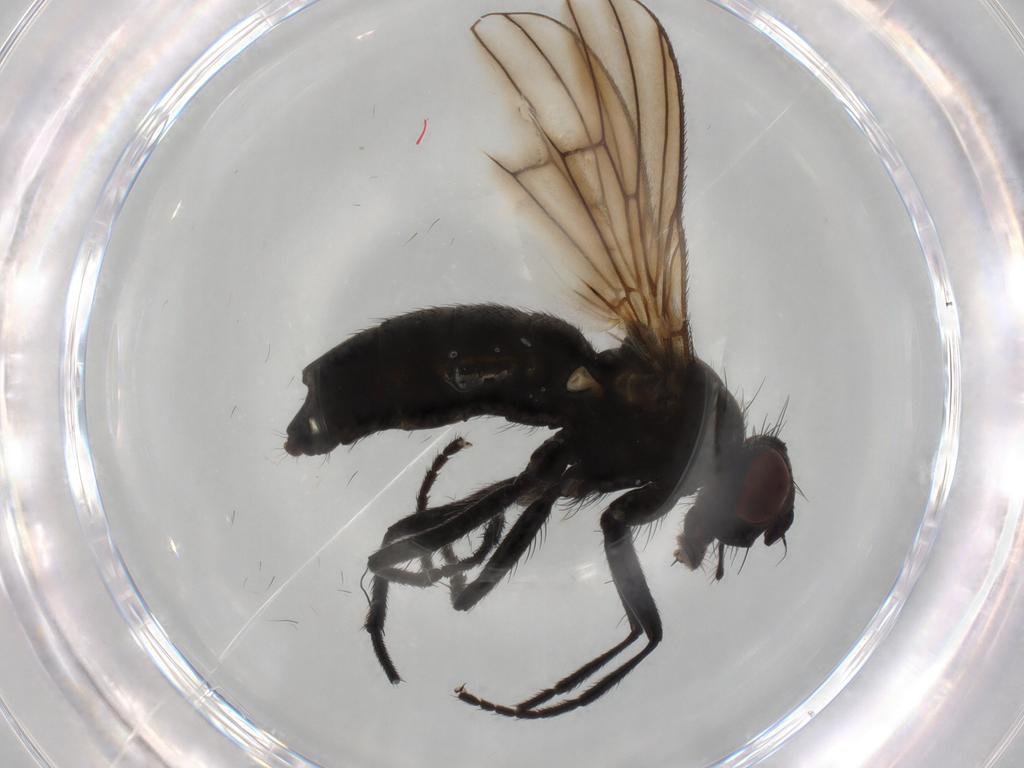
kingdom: Animalia
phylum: Arthropoda
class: Insecta
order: Diptera
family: Muscidae
